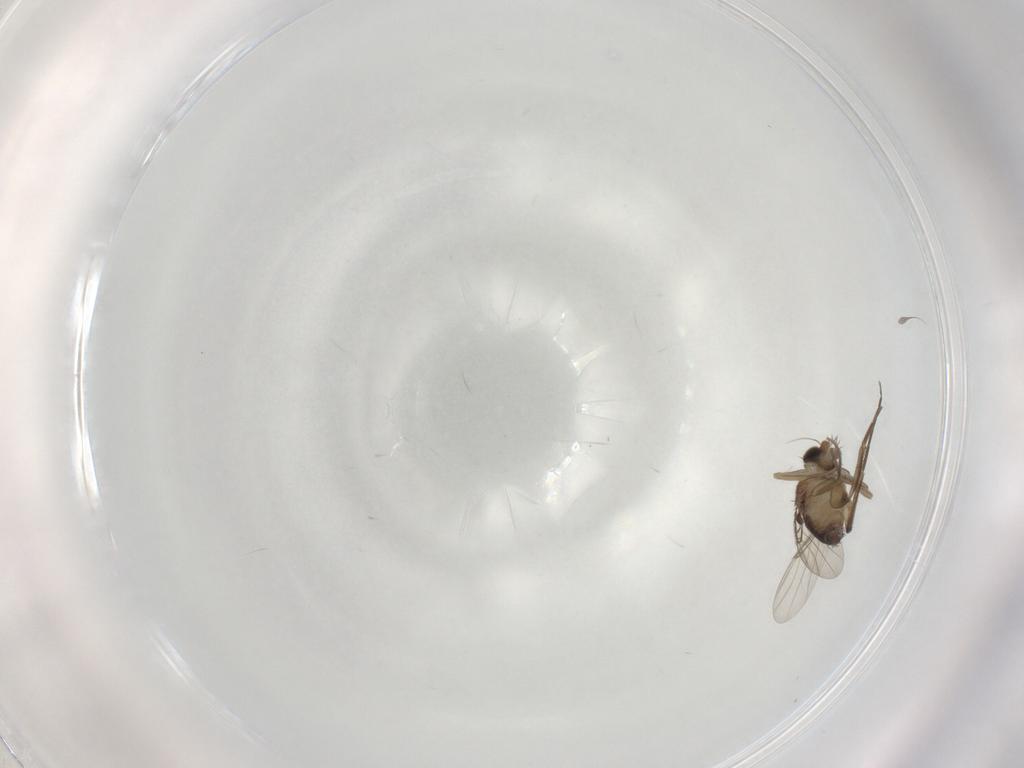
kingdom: Animalia
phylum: Arthropoda
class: Insecta
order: Diptera
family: Phoridae
